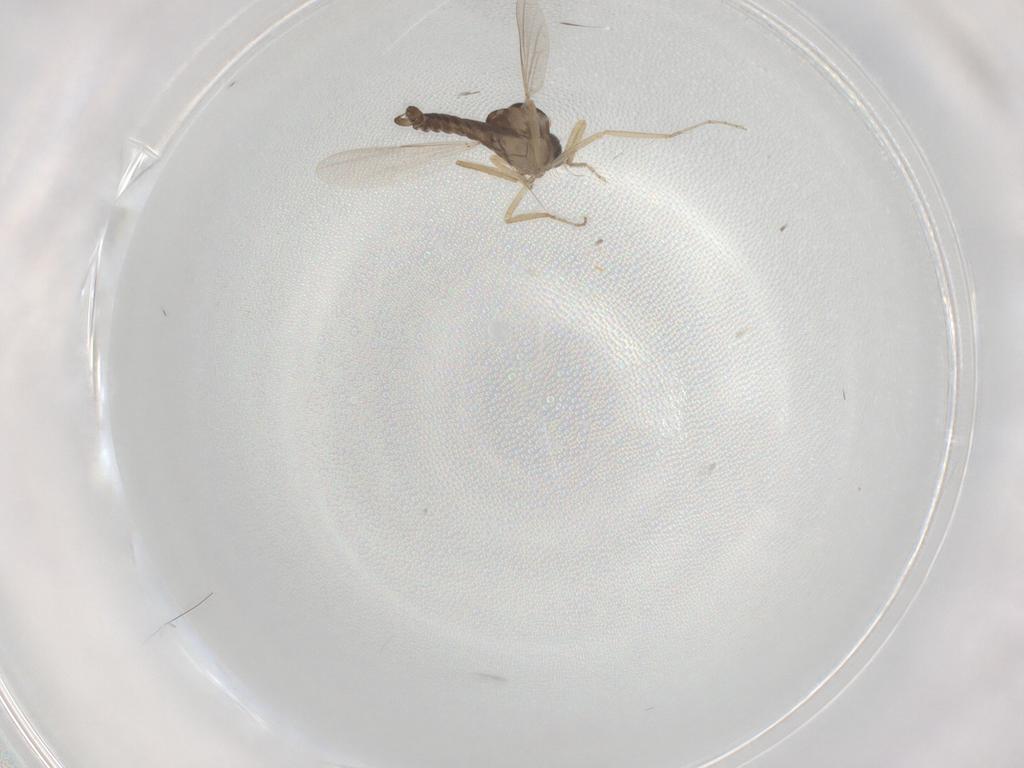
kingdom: Animalia
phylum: Arthropoda
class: Insecta
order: Diptera
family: Ceratopogonidae
